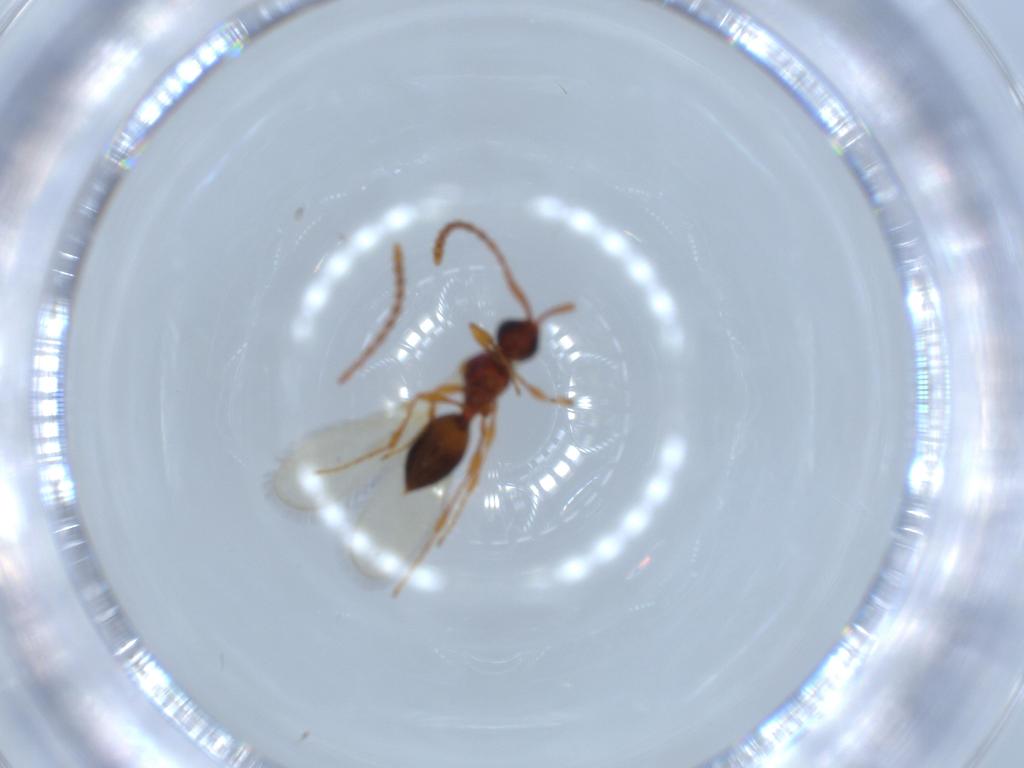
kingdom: Animalia
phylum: Arthropoda
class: Insecta
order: Hymenoptera
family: Diapriidae
